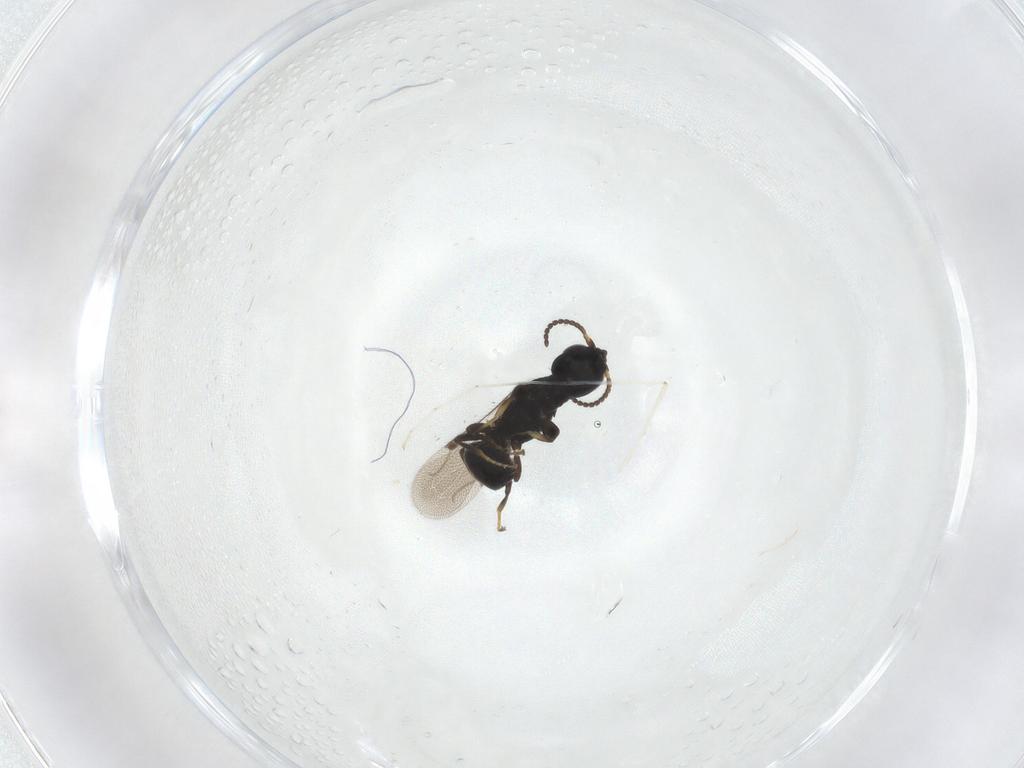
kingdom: Animalia
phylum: Arthropoda
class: Insecta
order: Hymenoptera
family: Bethylidae
